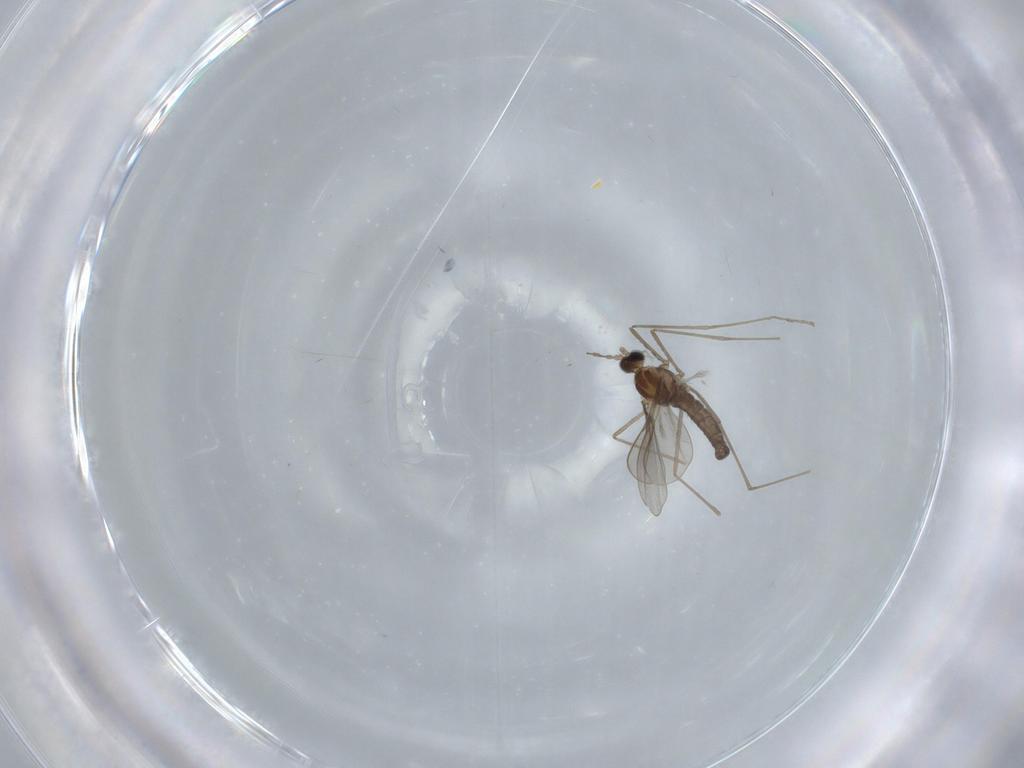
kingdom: Animalia
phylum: Arthropoda
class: Insecta
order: Diptera
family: Cecidomyiidae
